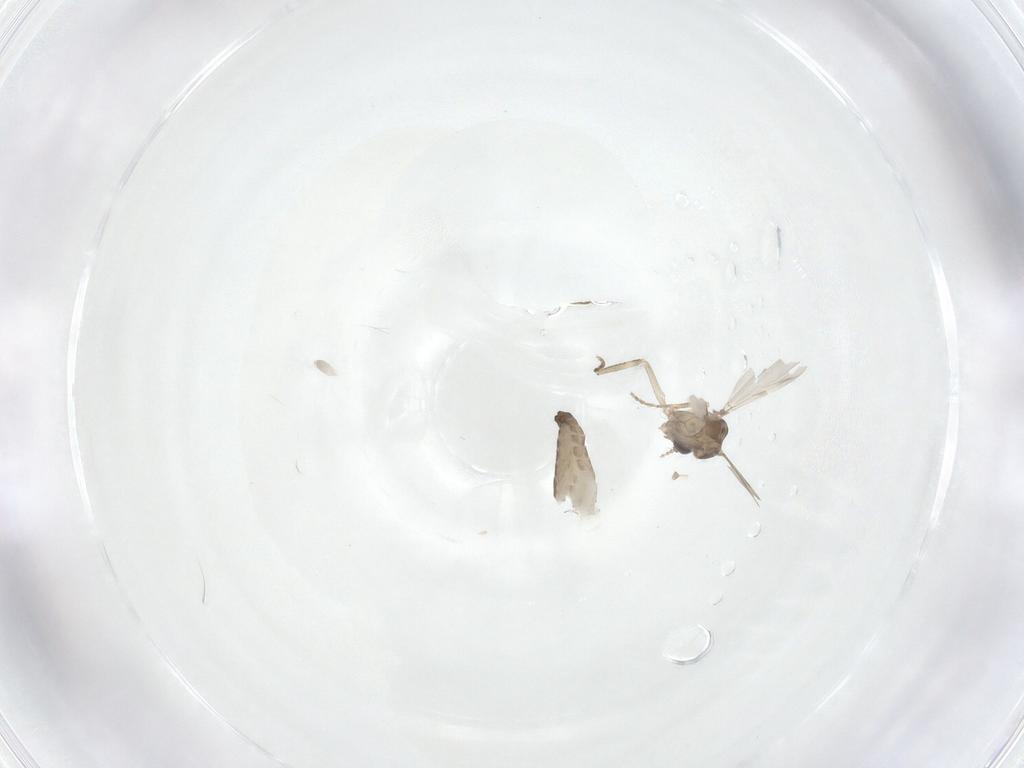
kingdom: Animalia
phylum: Arthropoda
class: Insecta
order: Diptera
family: Ceratopogonidae
